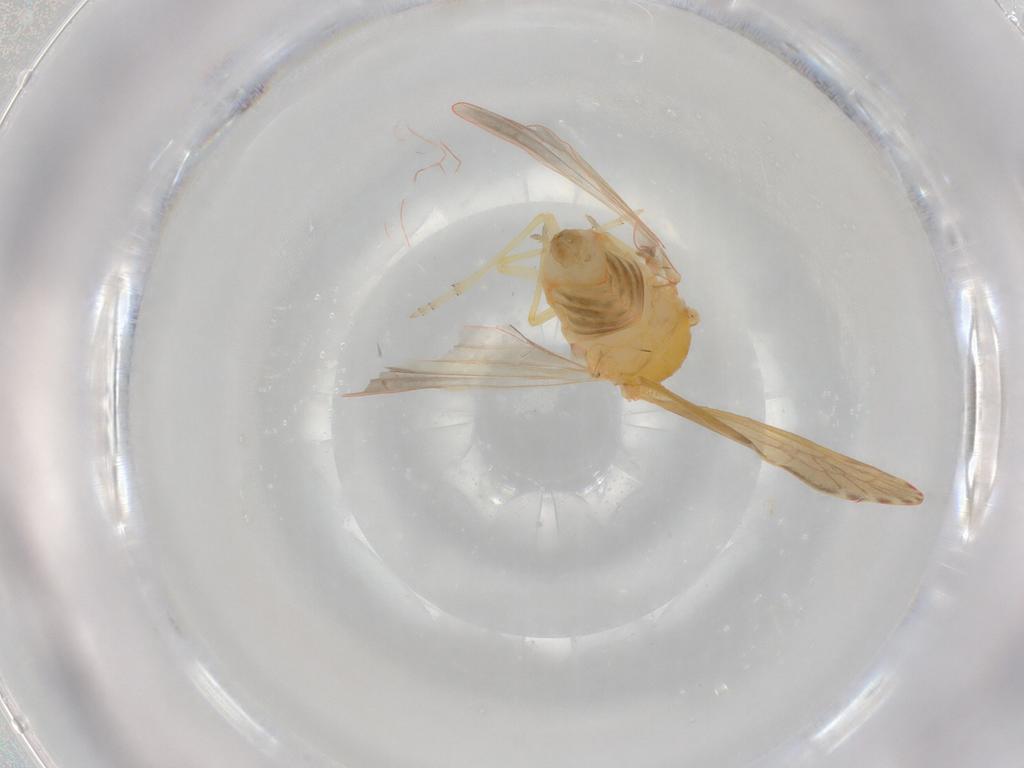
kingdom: Animalia
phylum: Arthropoda
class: Insecta
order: Hemiptera
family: Derbidae
